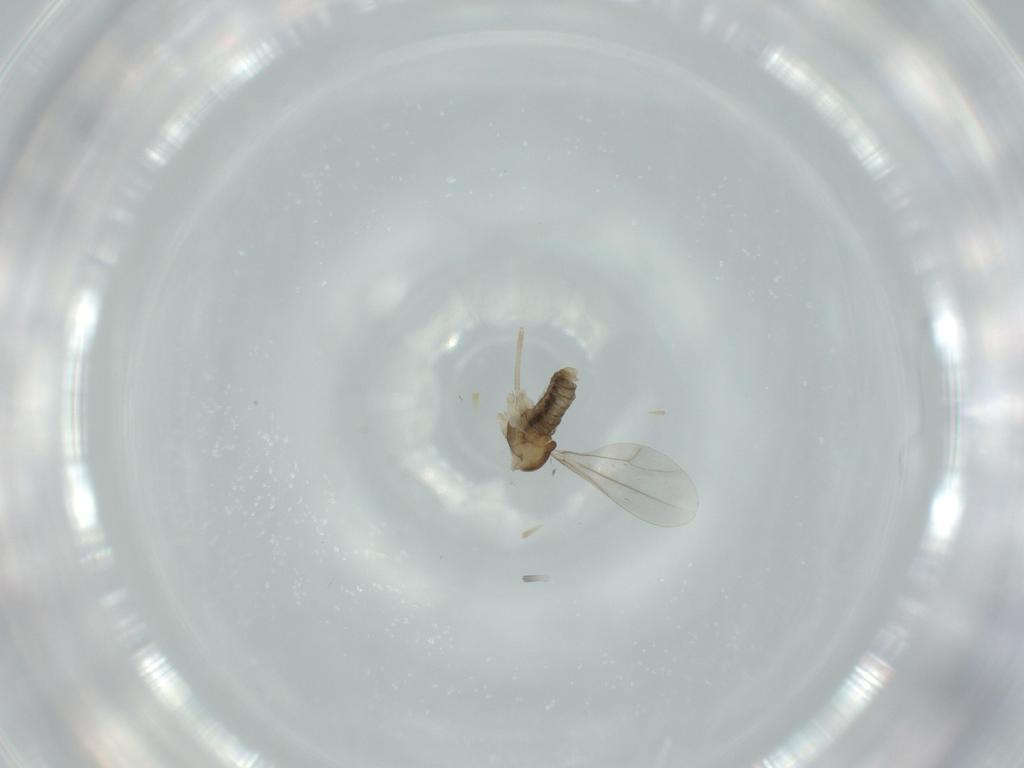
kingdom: Animalia
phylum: Arthropoda
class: Insecta
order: Diptera
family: Cecidomyiidae
